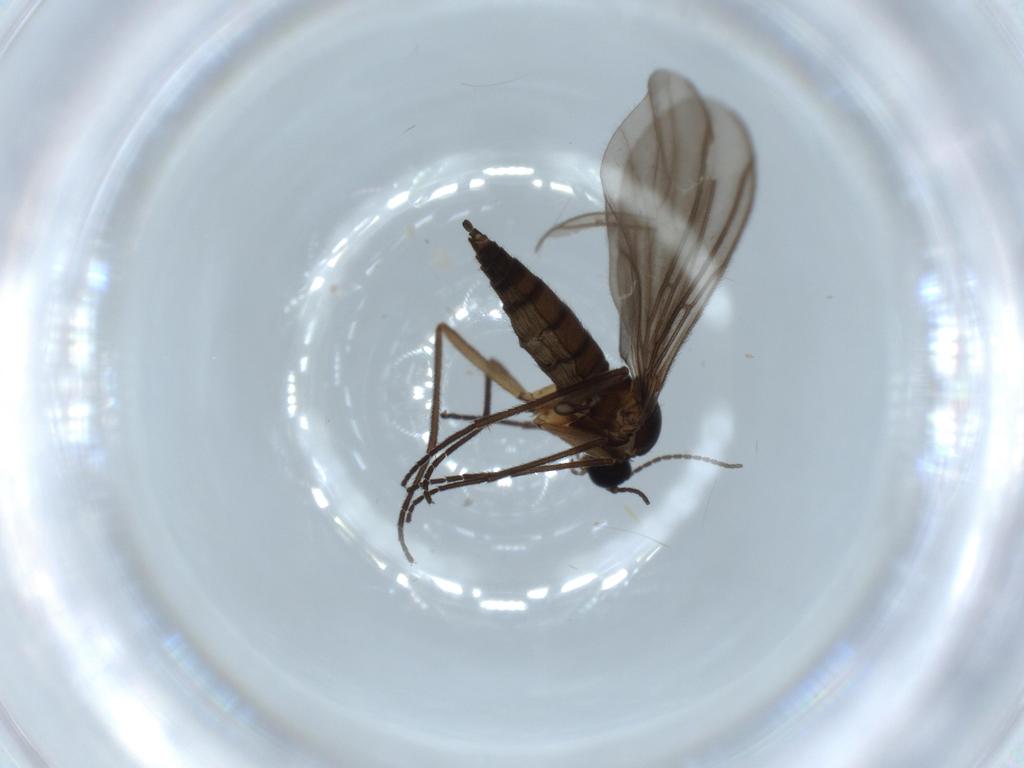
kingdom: Animalia
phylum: Arthropoda
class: Insecta
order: Diptera
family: Sciaridae
